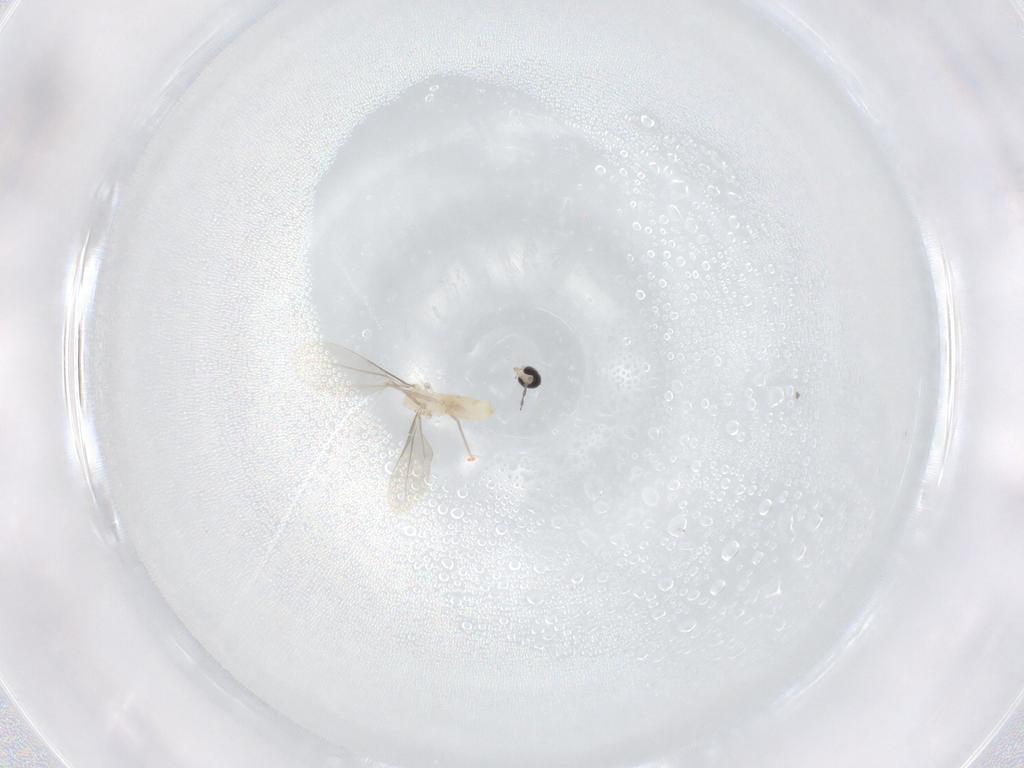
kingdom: Animalia
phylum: Arthropoda
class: Insecta
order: Diptera
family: Cecidomyiidae
